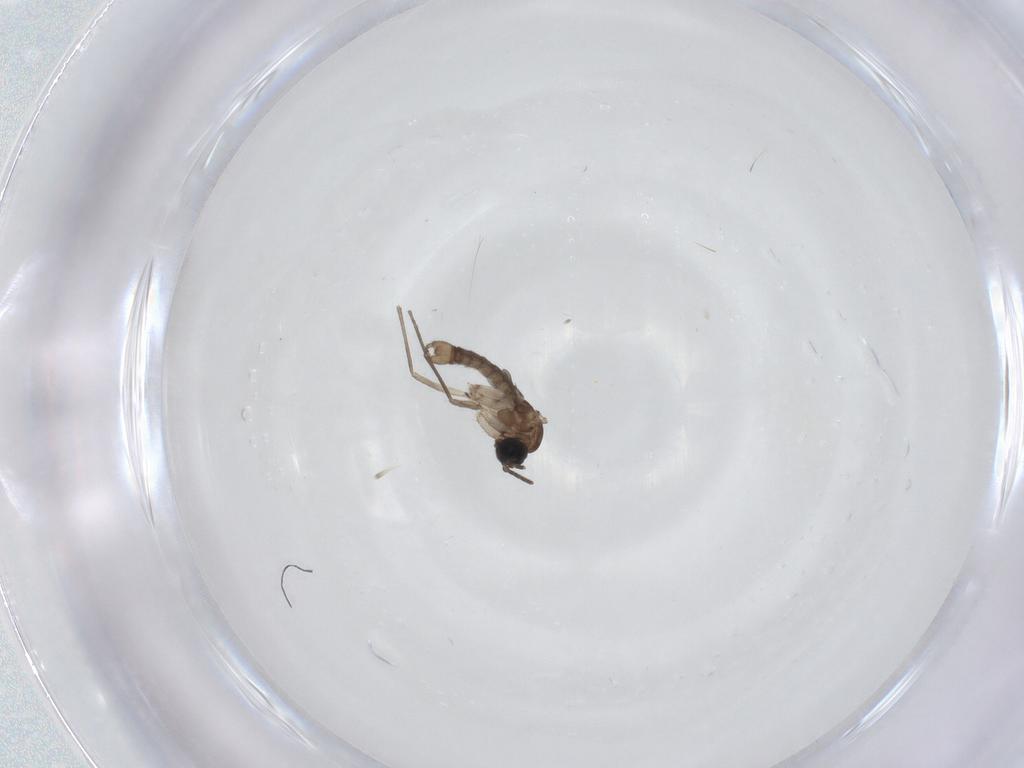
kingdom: Animalia
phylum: Arthropoda
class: Insecta
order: Diptera
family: Sciaridae
